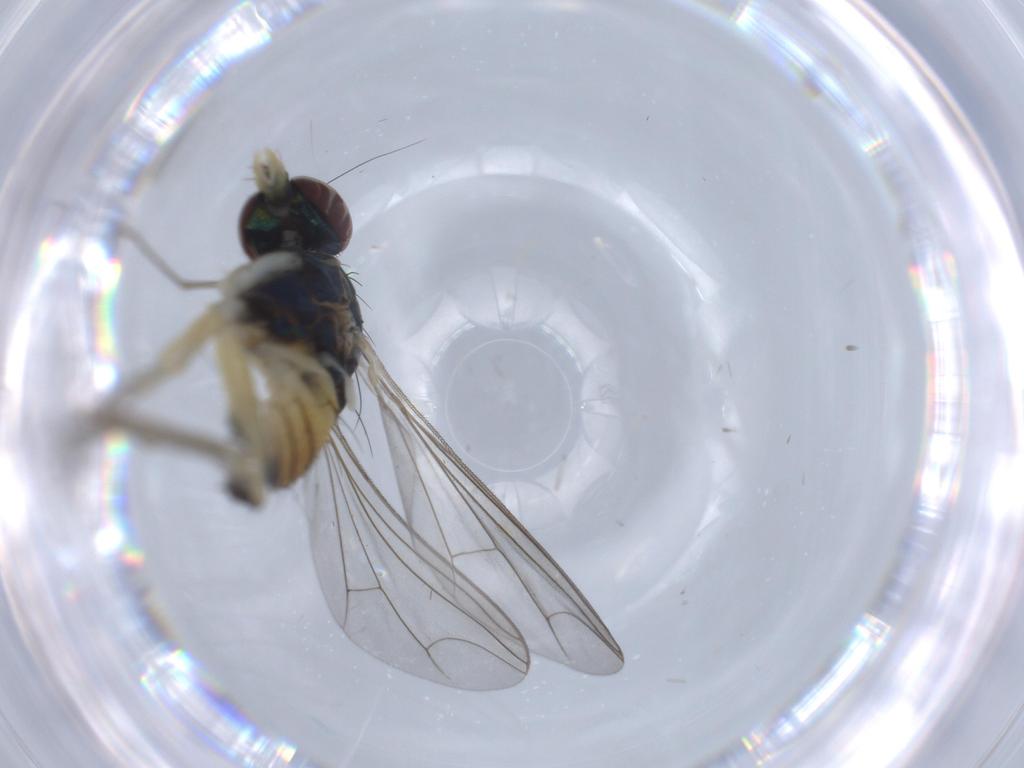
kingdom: Animalia
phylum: Arthropoda
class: Insecta
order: Diptera
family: Dolichopodidae
